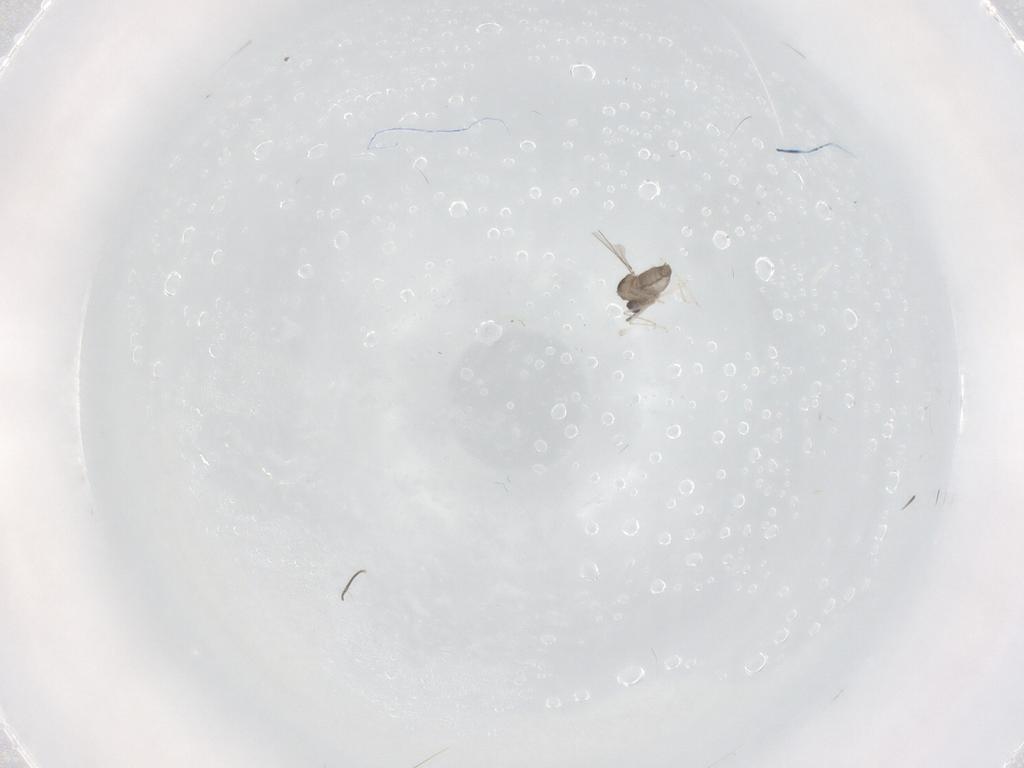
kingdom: Animalia
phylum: Arthropoda
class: Insecta
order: Diptera
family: Cecidomyiidae
